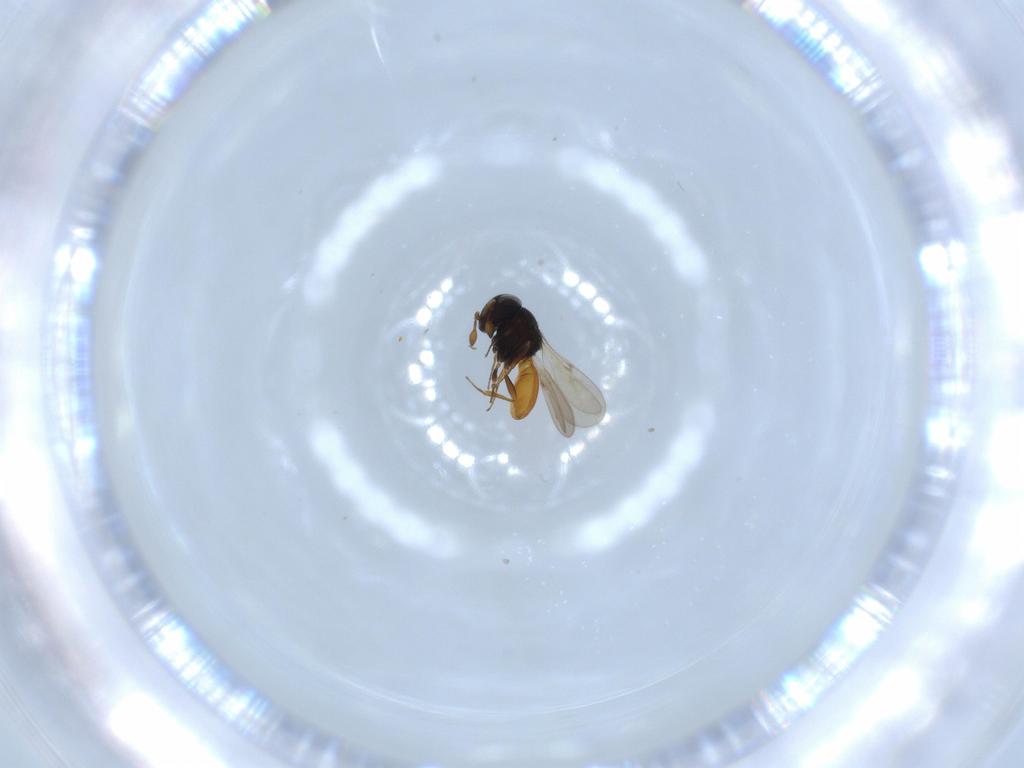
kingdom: Animalia
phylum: Arthropoda
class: Insecta
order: Hymenoptera
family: Scelionidae
